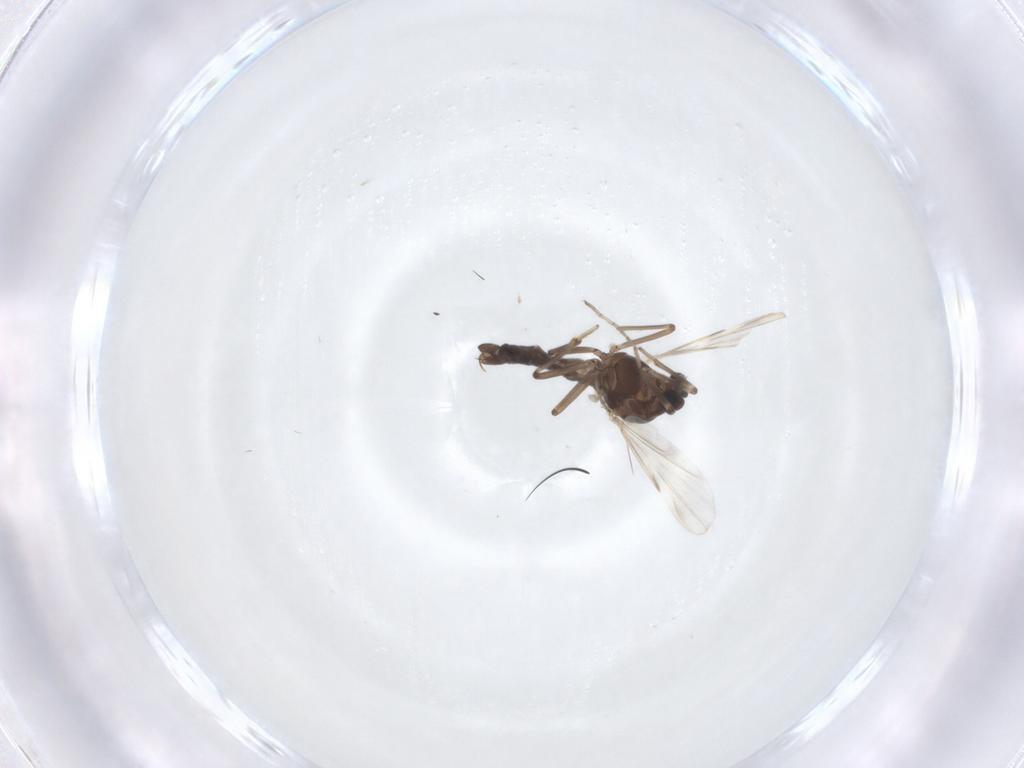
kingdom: Animalia
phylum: Arthropoda
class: Insecta
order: Diptera
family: Ceratopogonidae
